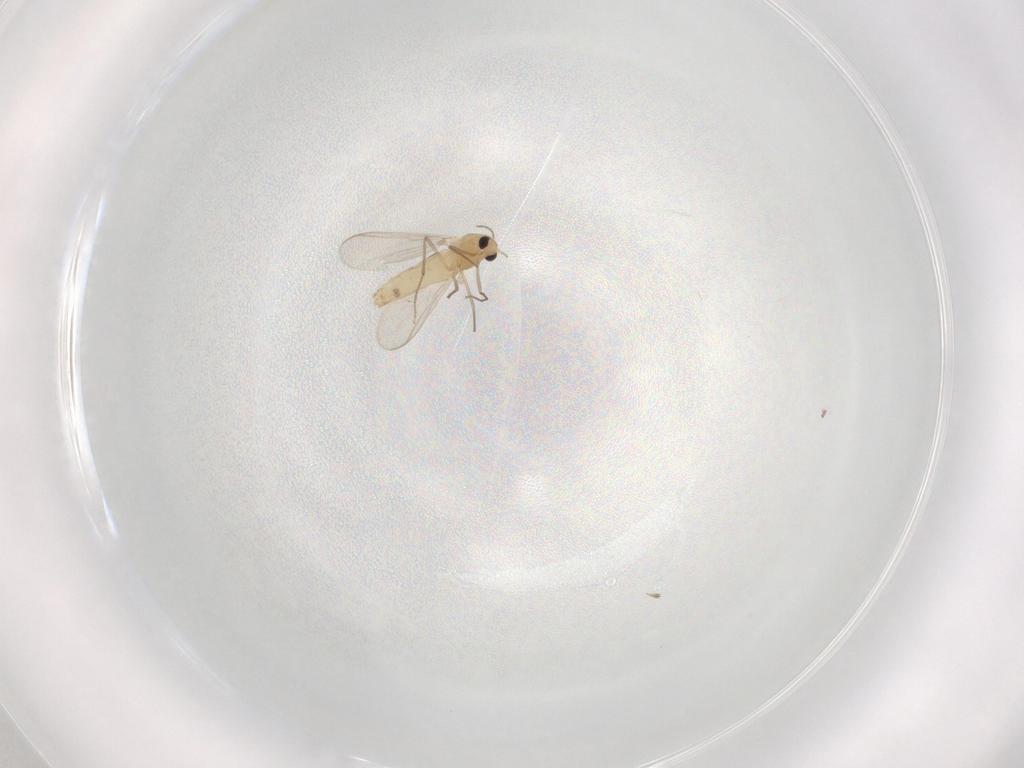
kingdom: Animalia
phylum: Arthropoda
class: Insecta
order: Diptera
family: Chironomidae
